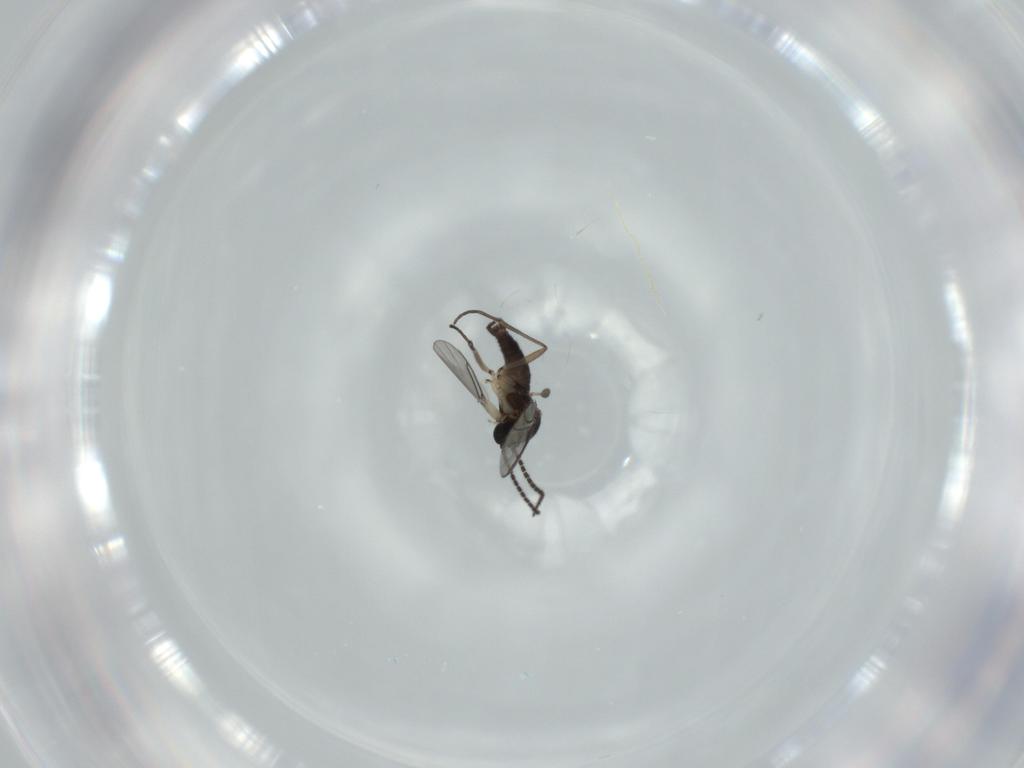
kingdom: Animalia
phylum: Arthropoda
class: Insecta
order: Diptera
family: Sciaridae
